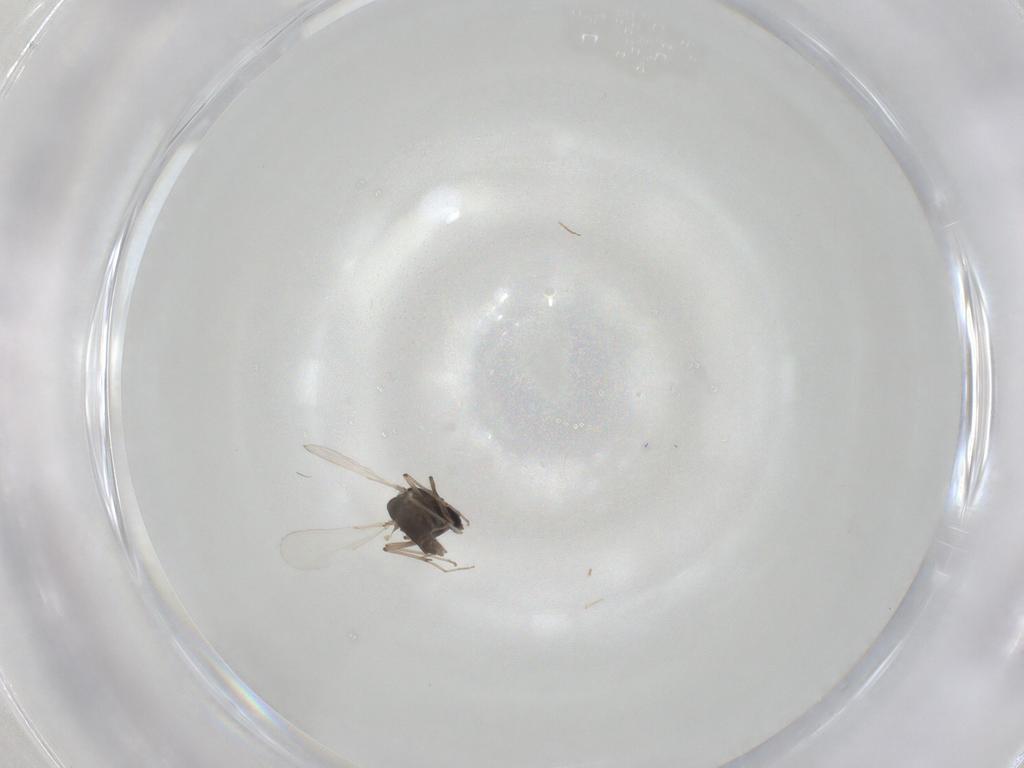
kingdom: Animalia
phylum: Arthropoda
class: Insecta
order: Diptera
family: Chironomidae
